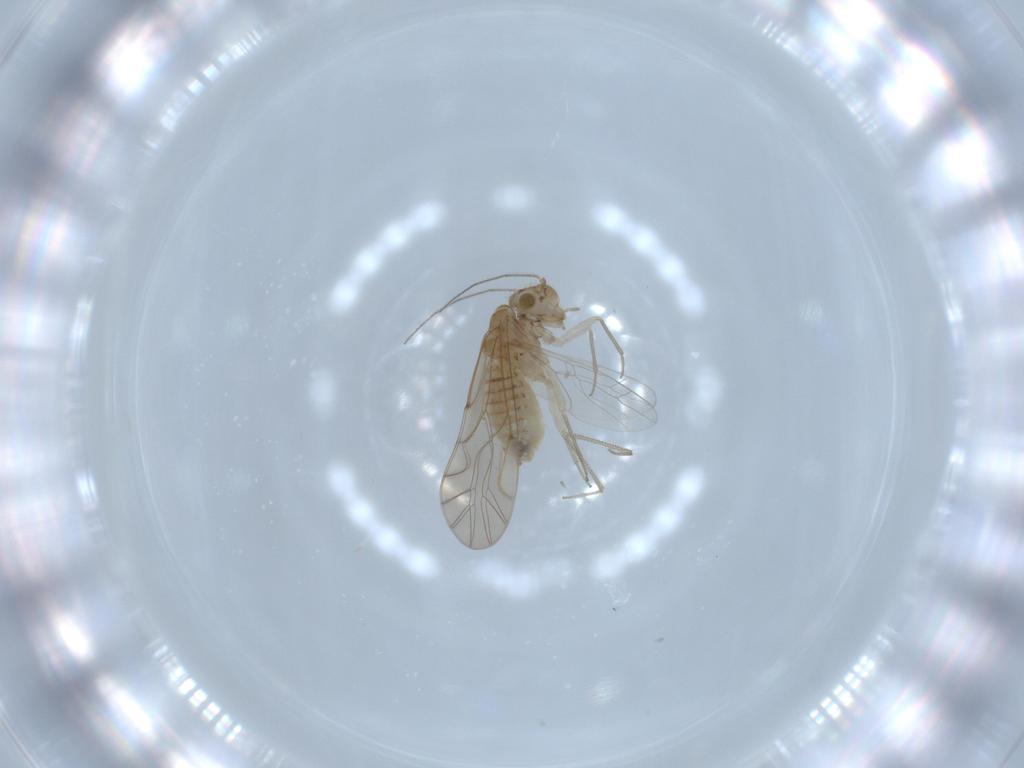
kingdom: Animalia
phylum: Arthropoda
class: Insecta
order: Psocodea
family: Lachesillidae
